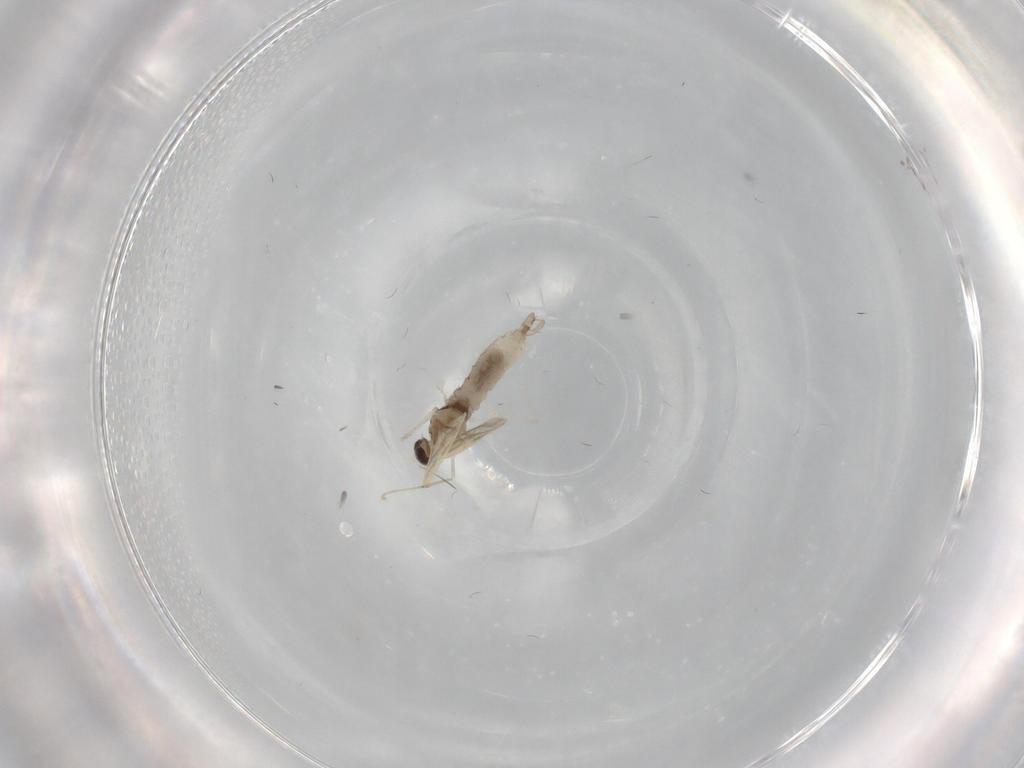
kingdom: Animalia
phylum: Arthropoda
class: Insecta
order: Diptera
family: Cecidomyiidae
